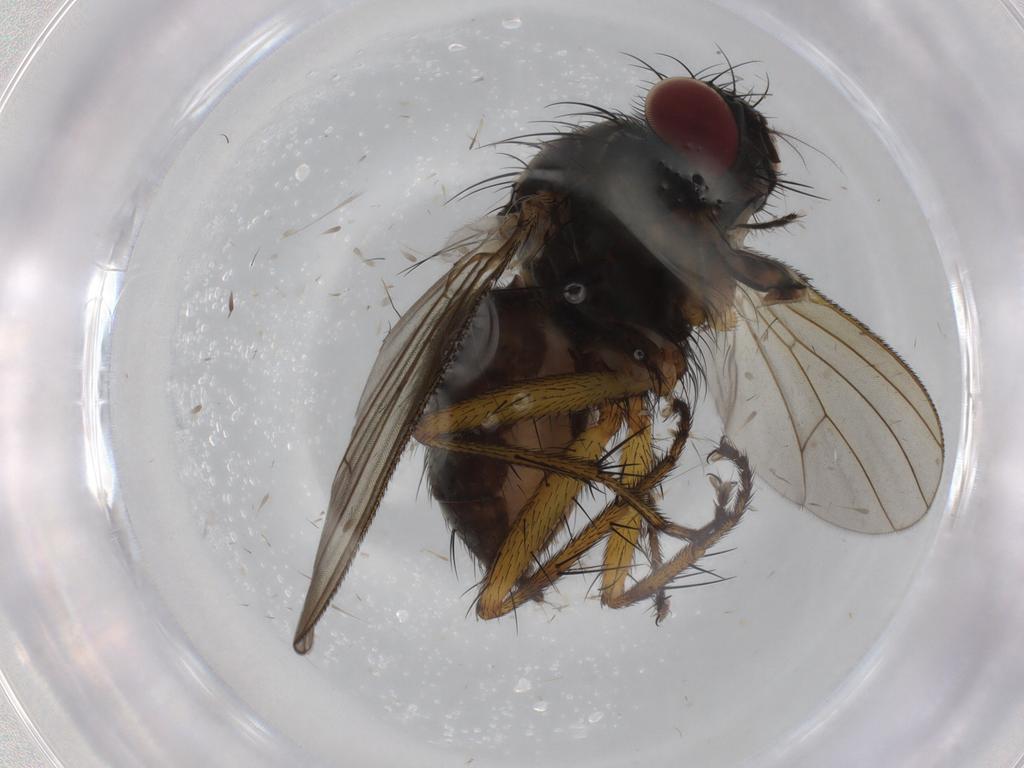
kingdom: Animalia
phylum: Arthropoda
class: Insecta
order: Diptera
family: Muscidae
